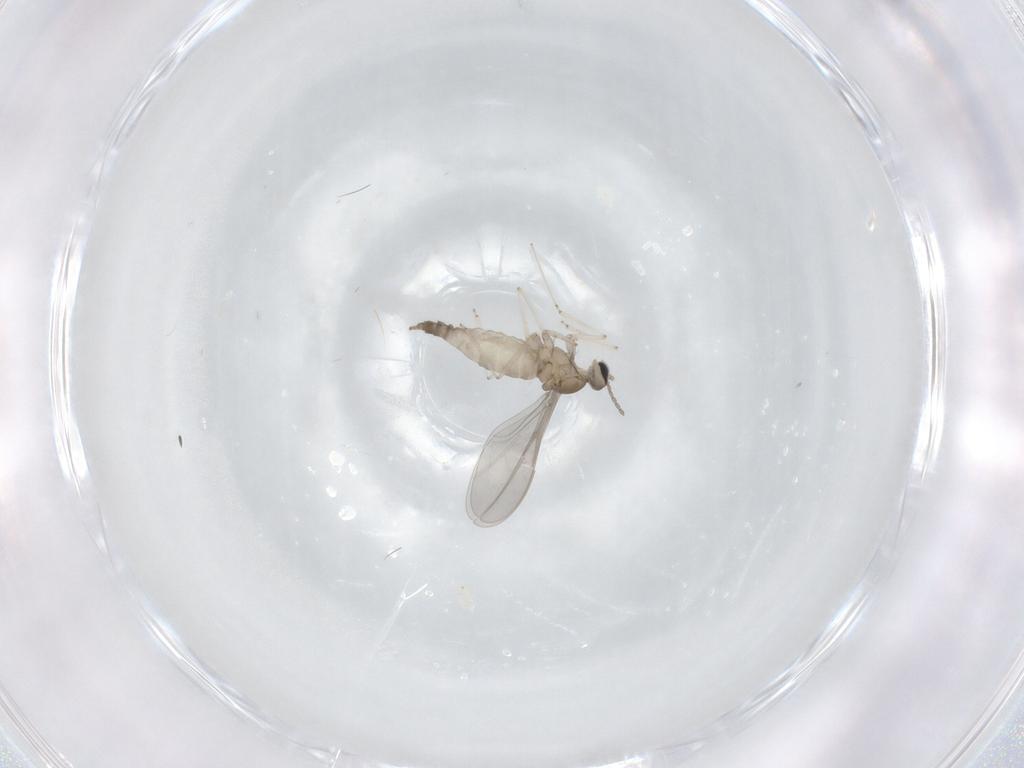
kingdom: Animalia
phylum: Arthropoda
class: Insecta
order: Diptera
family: Cecidomyiidae
